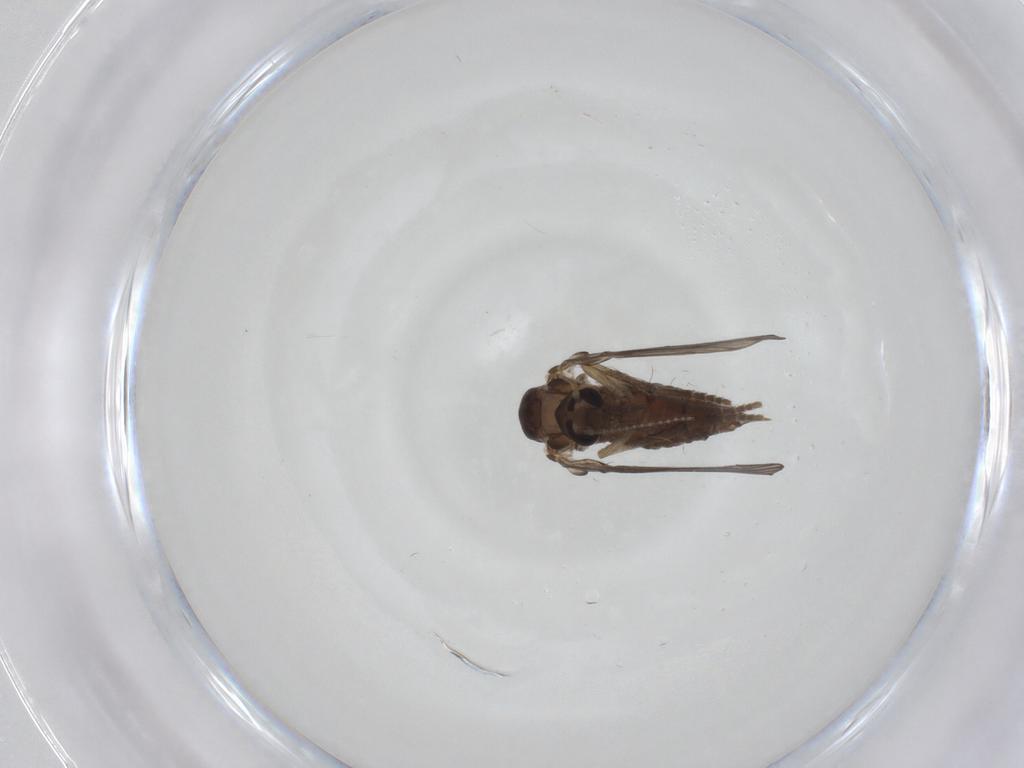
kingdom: Animalia
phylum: Arthropoda
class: Insecta
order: Diptera
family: Psychodidae
